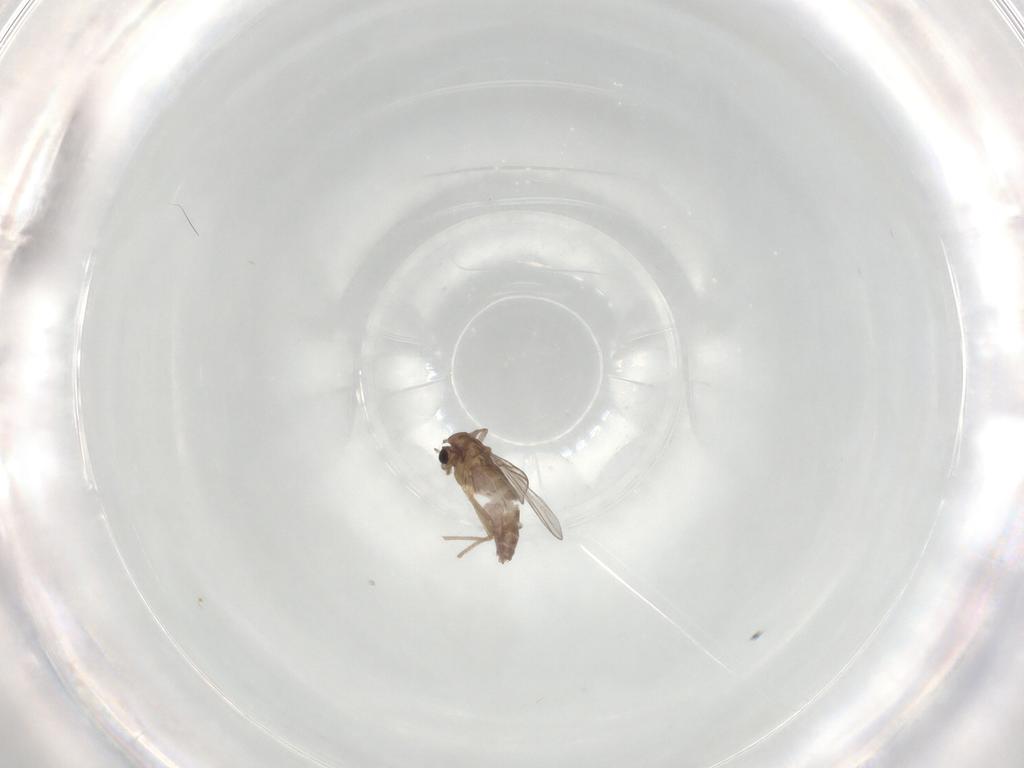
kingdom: Animalia
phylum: Arthropoda
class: Insecta
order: Diptera
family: Chironomidae
